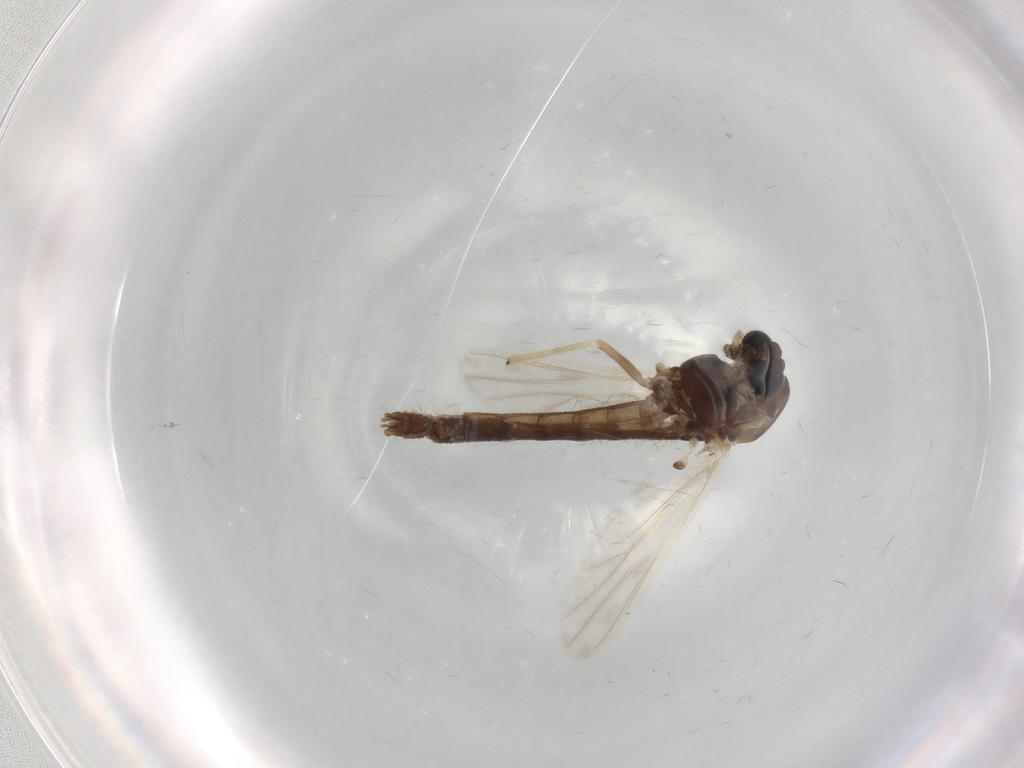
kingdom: Animalia
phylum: Arthropoda
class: Insecta
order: Diptera
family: Chironomidae
